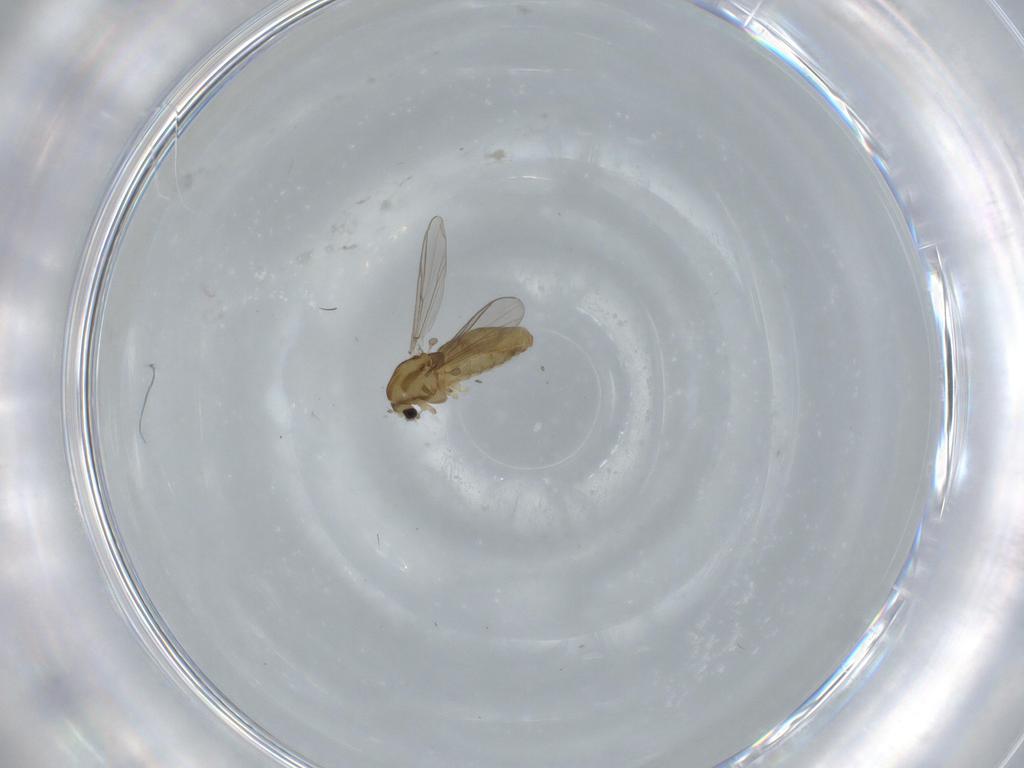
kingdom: Animalia
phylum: Arthropoda
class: Insecta
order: Diptera
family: Chironomidae
